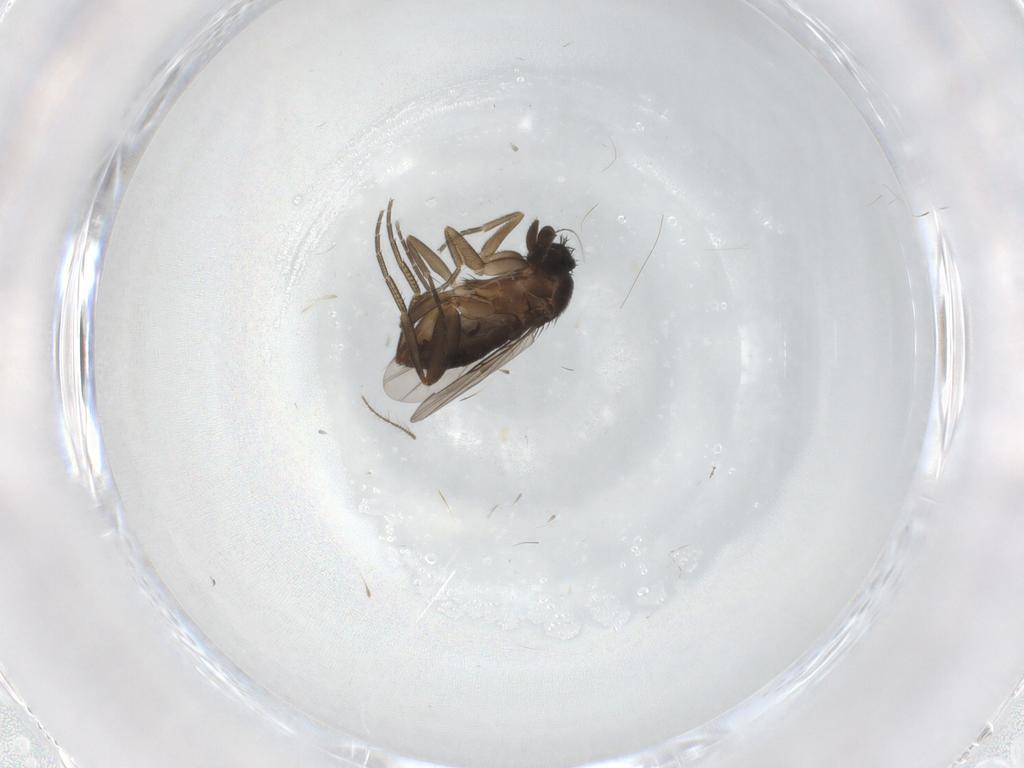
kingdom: Animalia
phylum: Arthropoda
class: Insecta
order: Diptera
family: Phoridae
